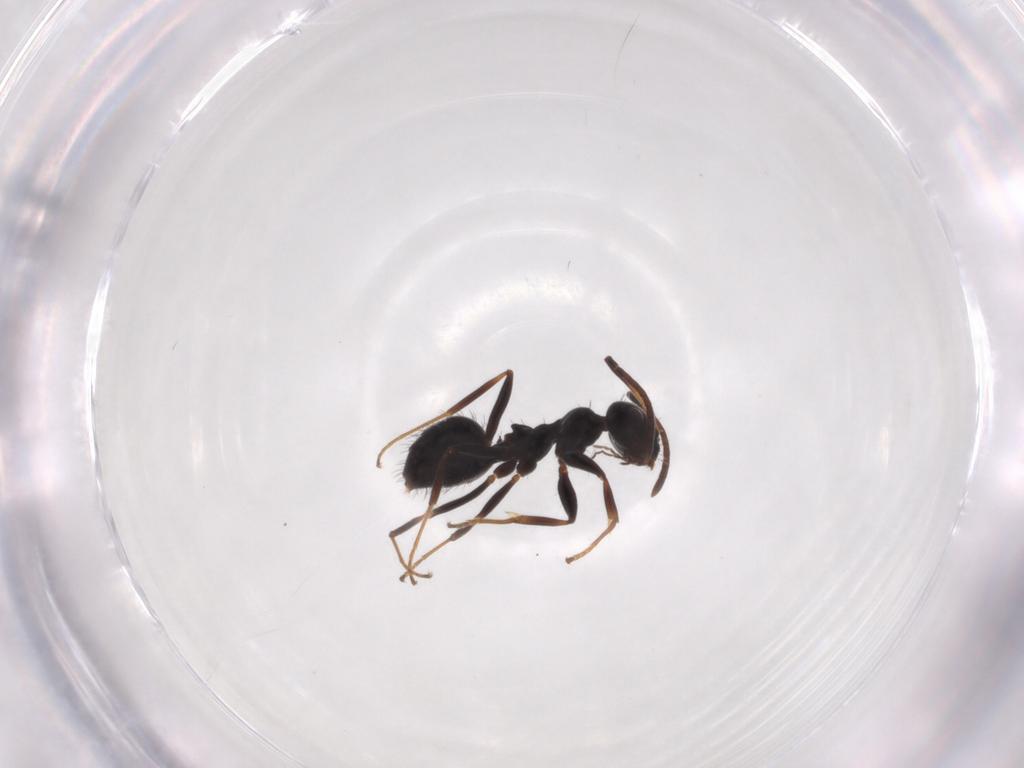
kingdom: Animalia
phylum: Arthropoda
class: Insecta
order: Hymenoptera
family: Formicidae
